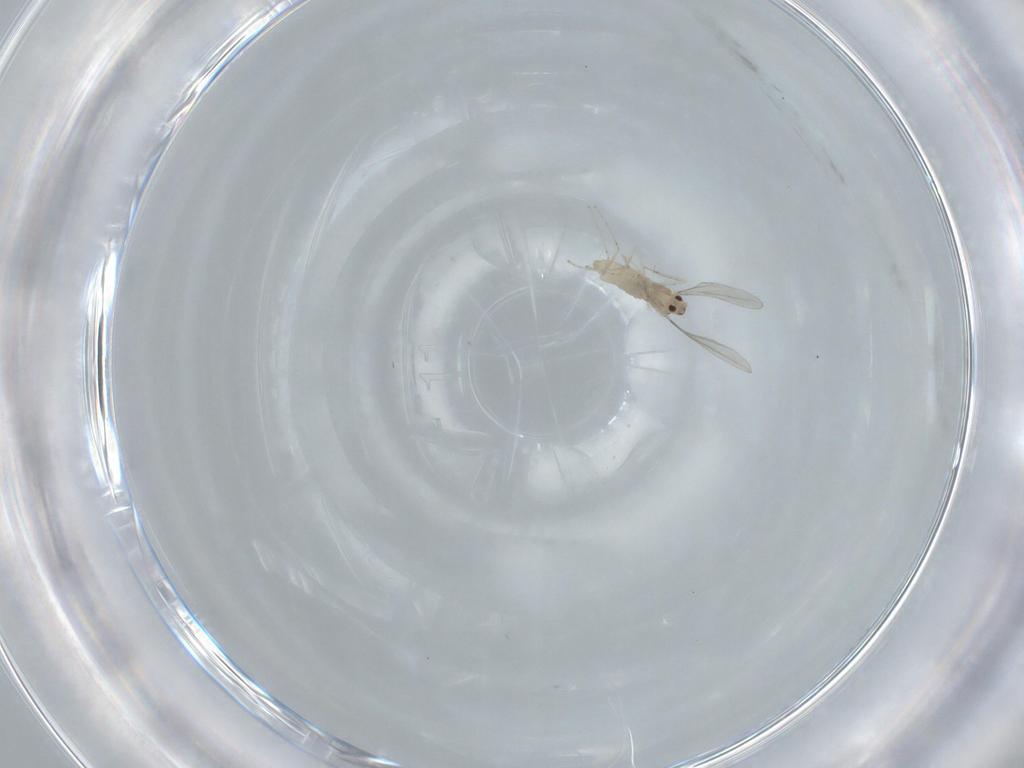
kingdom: Animalia
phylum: Arthropoda
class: Insecta
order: Diptera
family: Cecidomyiidae
